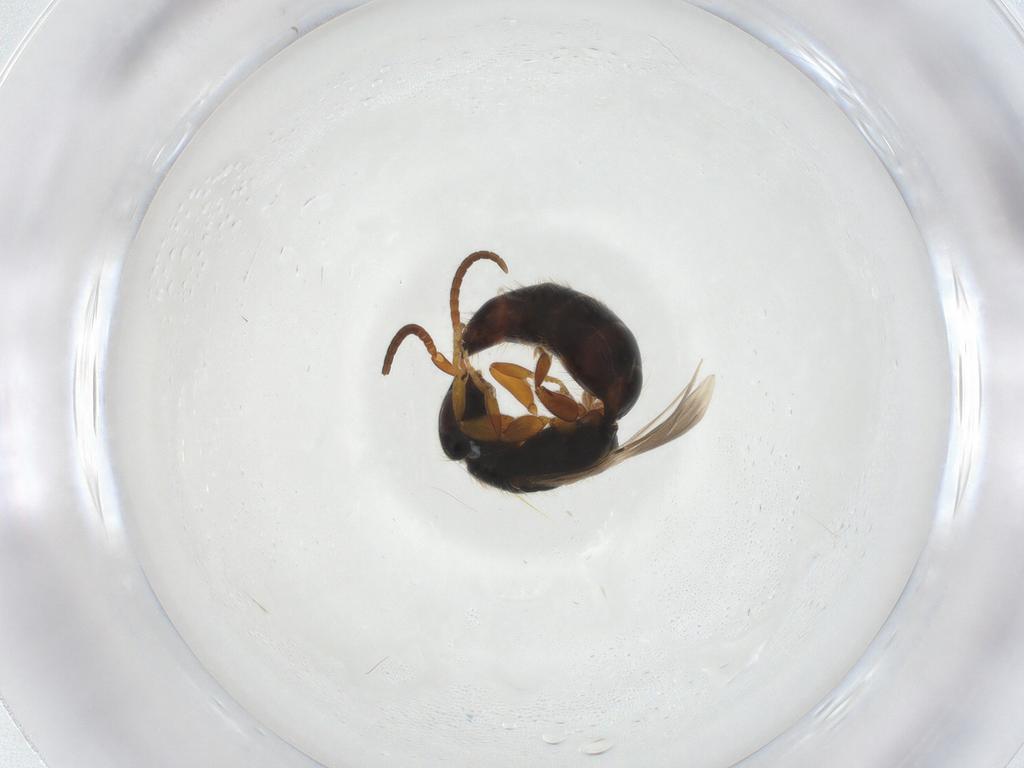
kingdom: Animalia
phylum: Arthropoda
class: Insecta
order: Hymenoptera
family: Bethylidae
